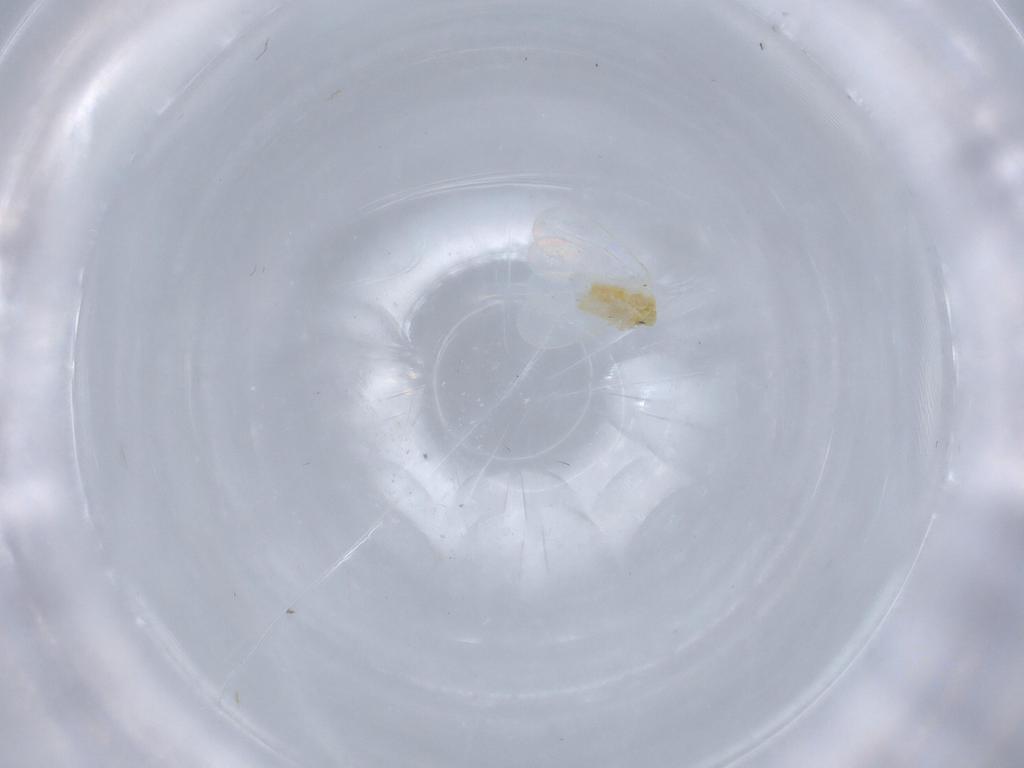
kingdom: Animalia
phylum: Arthropoda
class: Insecta
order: Hemiptera
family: Aleyrodidae
